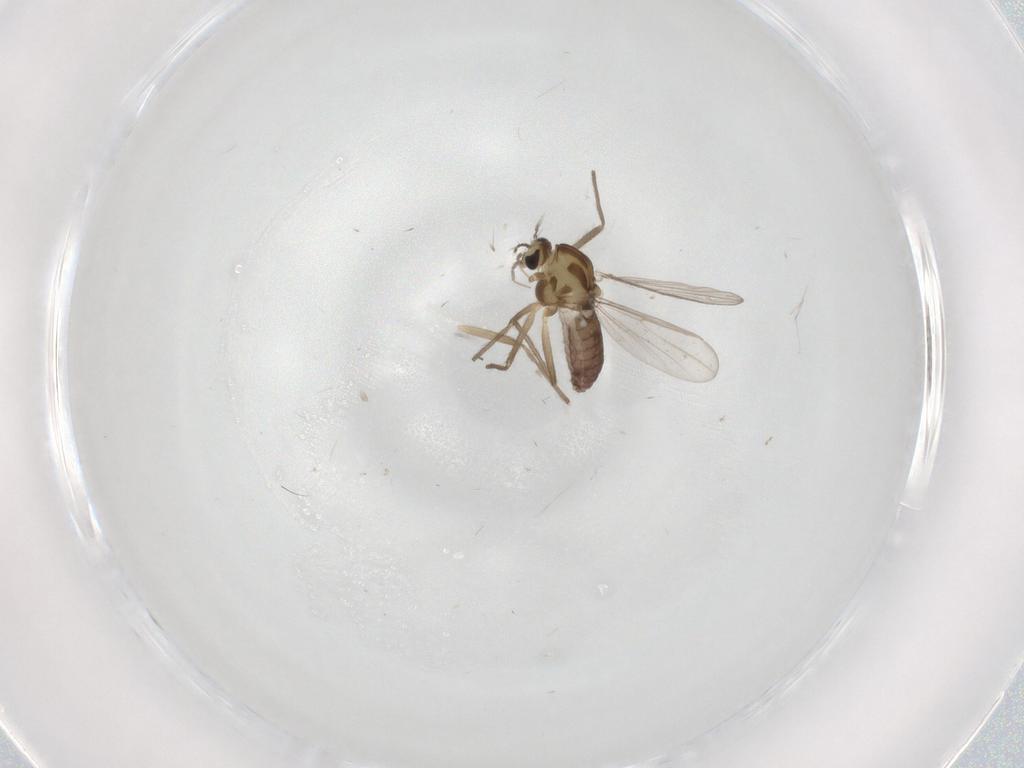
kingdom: Animalia
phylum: Arthropoda
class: Insecta
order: Diptera
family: Chironomidae
